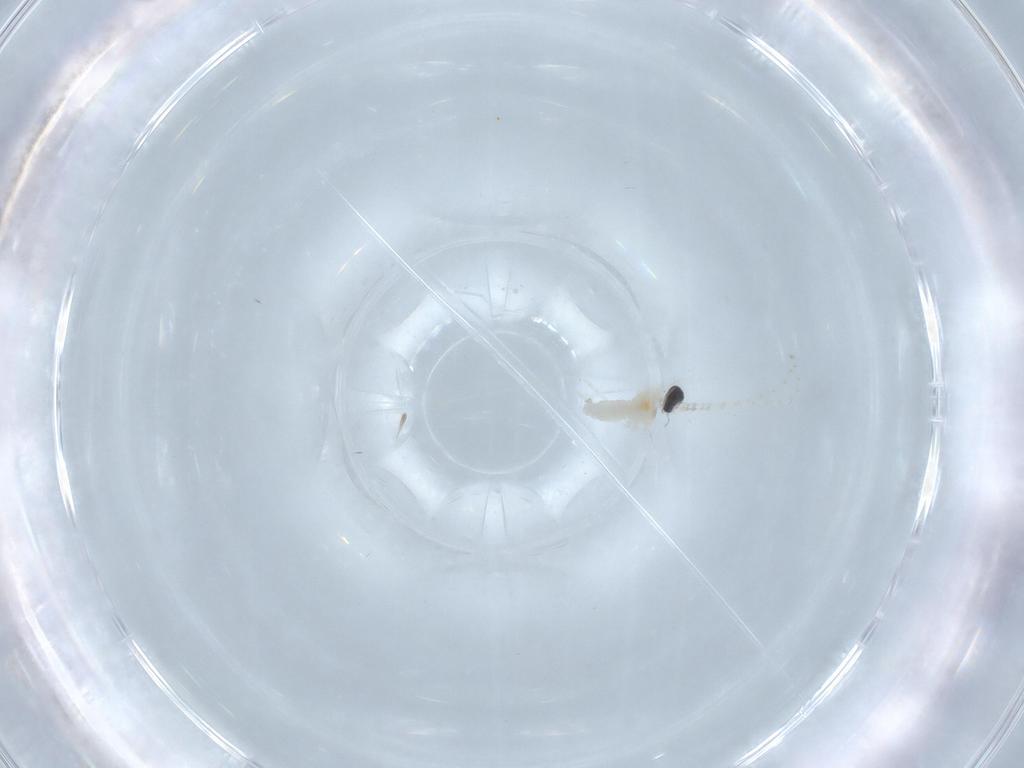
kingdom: Animalia
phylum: Arthropoda
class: Insecta
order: Diptera
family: Cecidomyiidae
